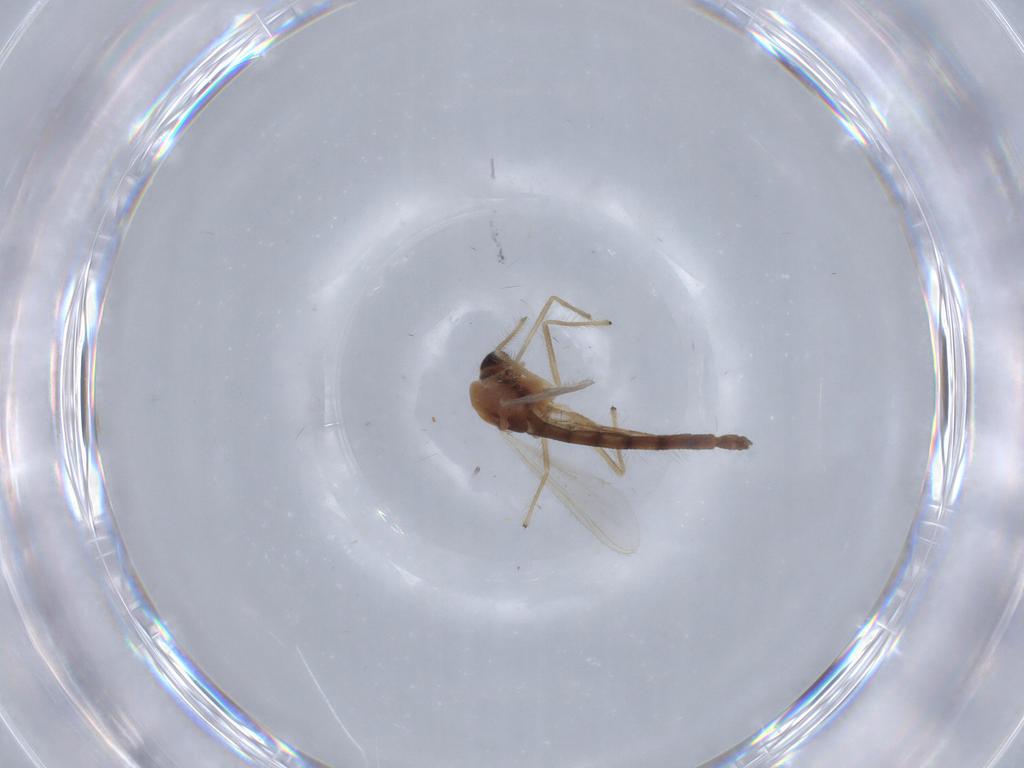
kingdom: Animalia
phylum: Arthropoda
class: Insecta
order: Diptera
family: Chironomidae
